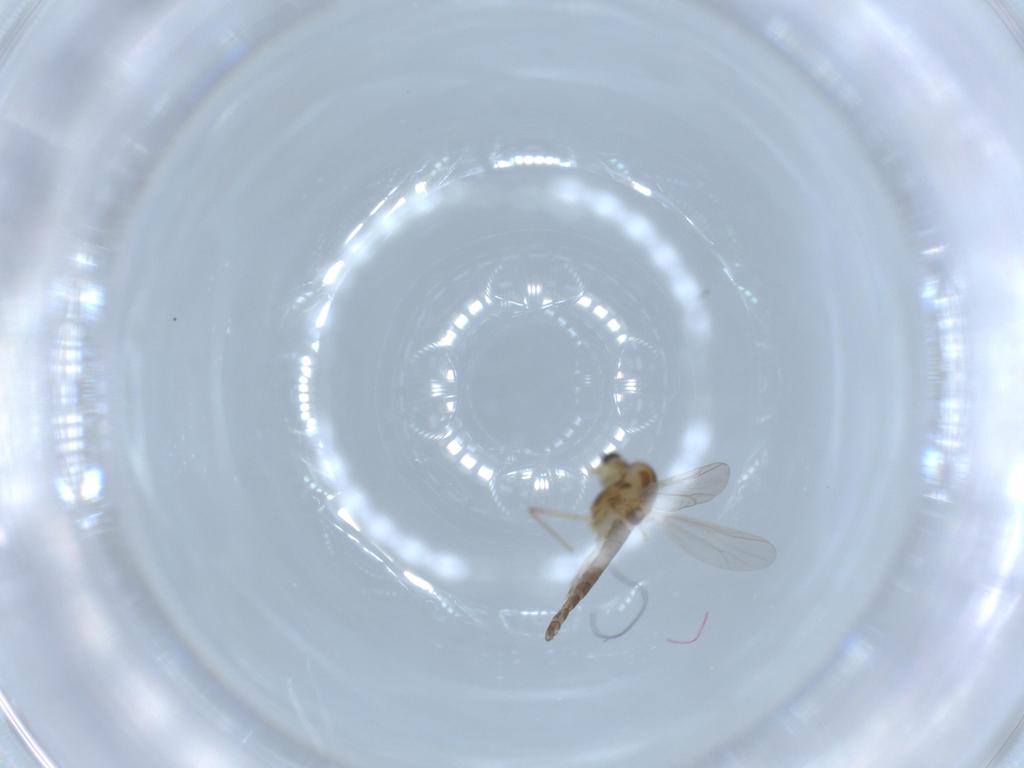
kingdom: Animalia
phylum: Arthropoda
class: Insecta
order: Diptera
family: Chironomidae
